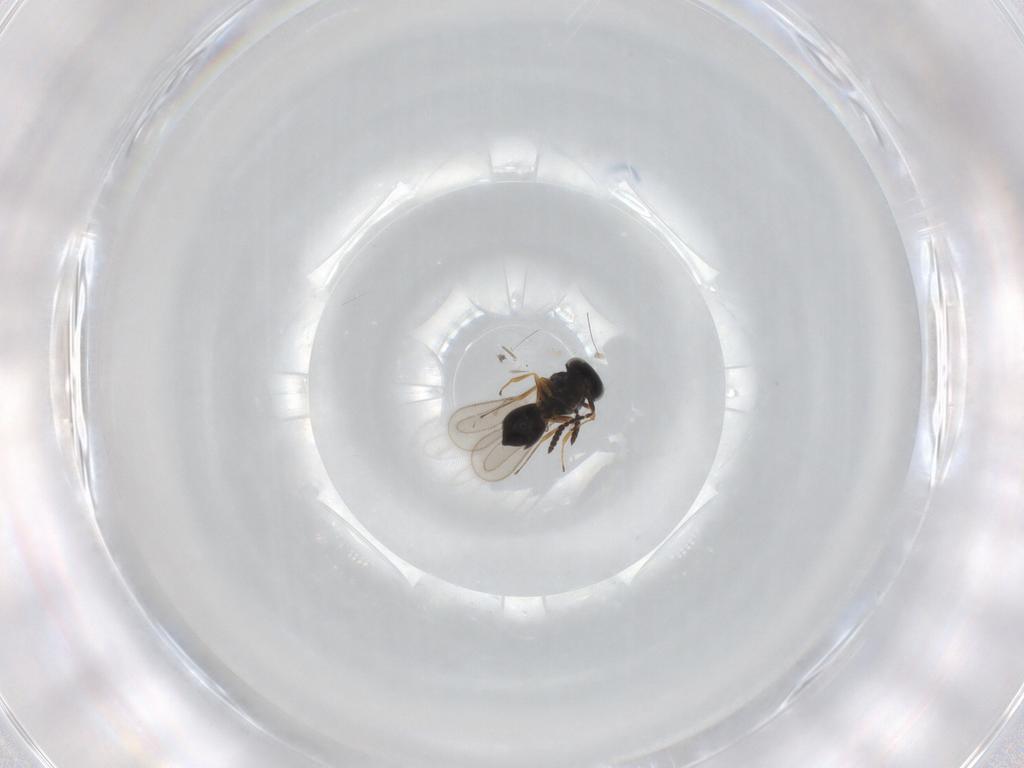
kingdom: Animalia
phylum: Arthropoda
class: Insecta
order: Hymenoptera
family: Scelionidae
